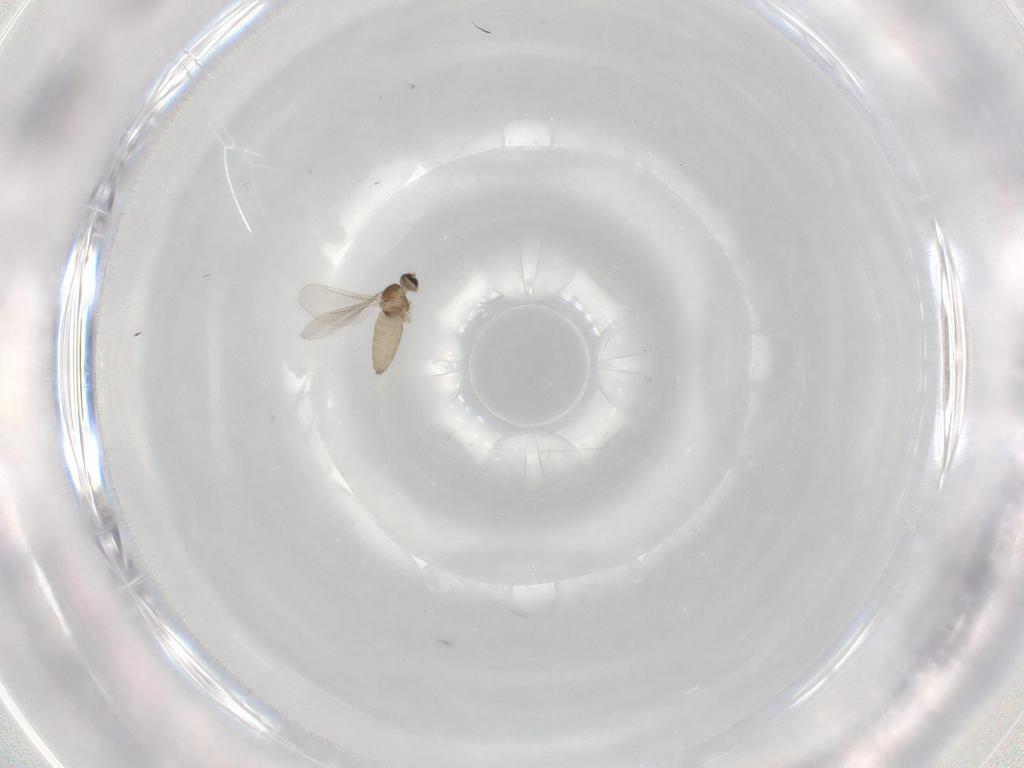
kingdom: Animalia
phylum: Arthropoda
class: Insecta
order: Diptera
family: Cecidomyiidae
